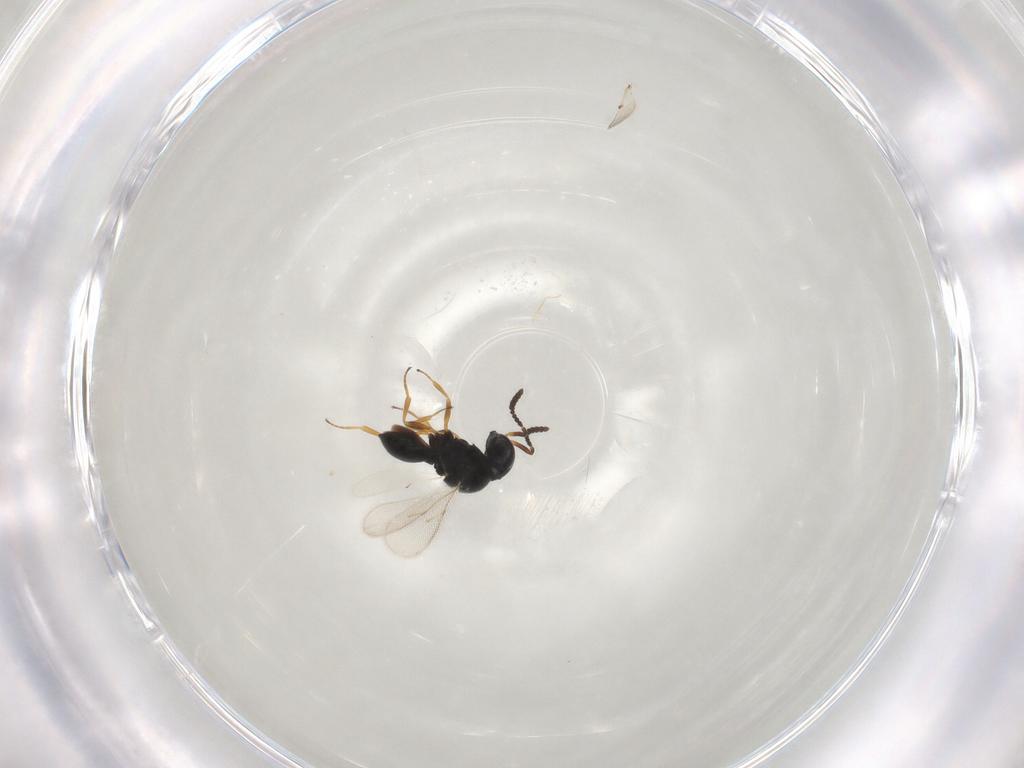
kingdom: Animalia
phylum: Arthropoda
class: Insecta
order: Hymenoptera
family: Scelionidae
